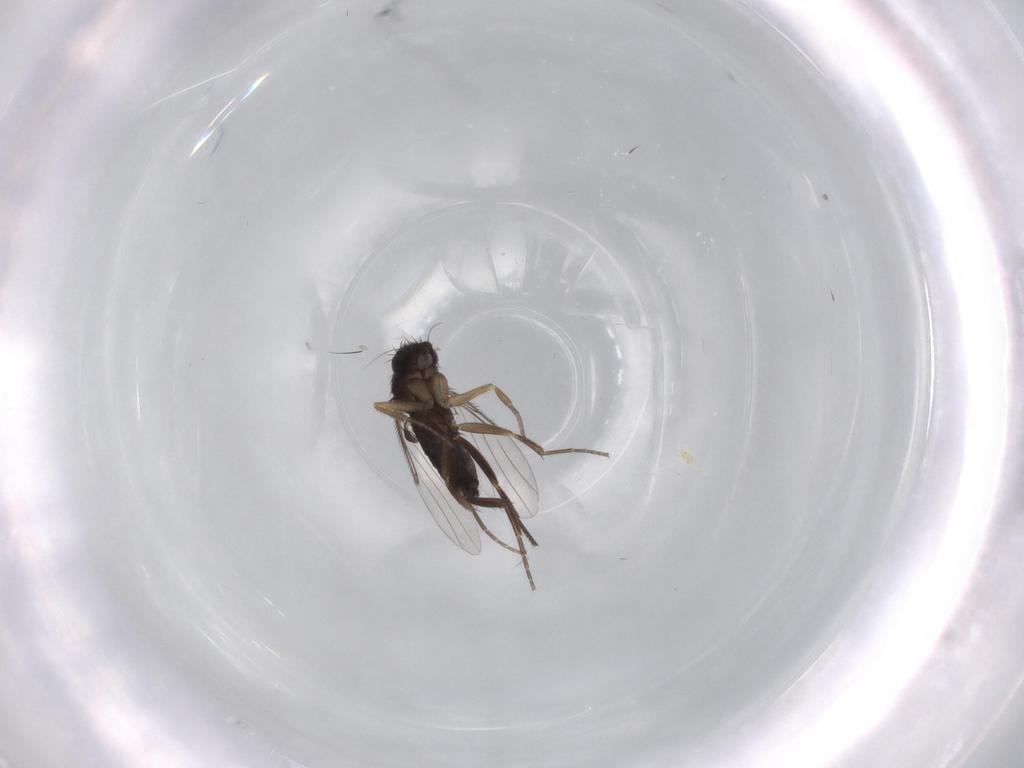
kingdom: Animalia
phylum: Arthropoda
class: Insecta
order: Diptera
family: Phoridae
